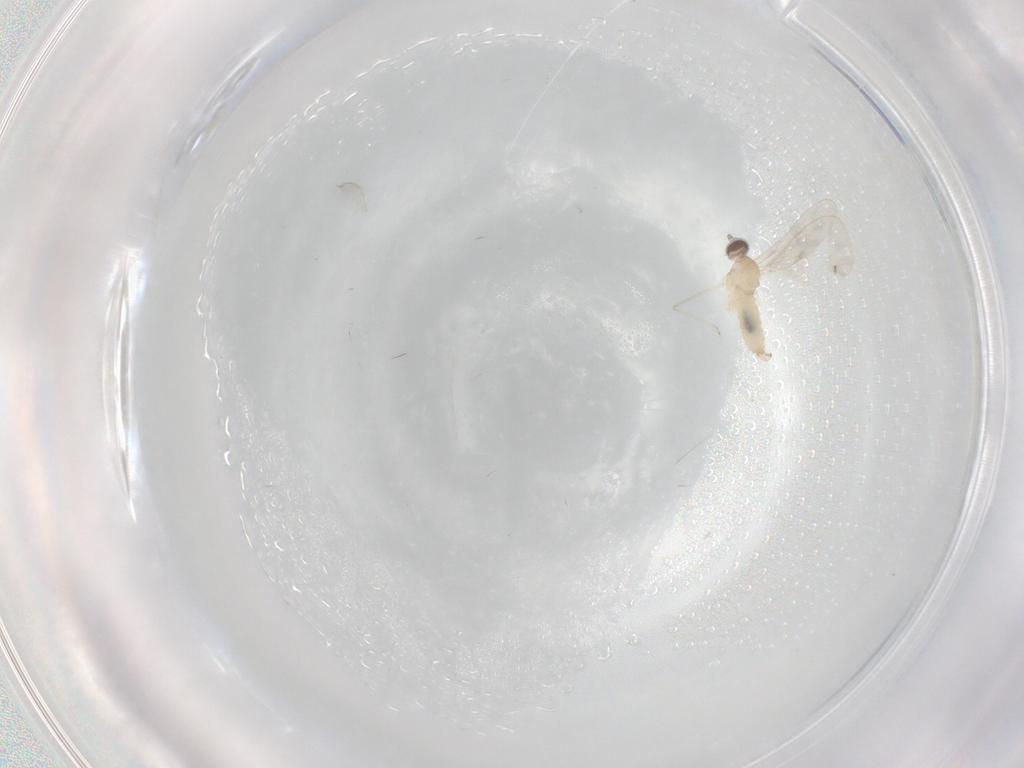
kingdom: Animalia
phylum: Arthropoda
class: Insecta
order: Diptera
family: Cecidomyiidae
